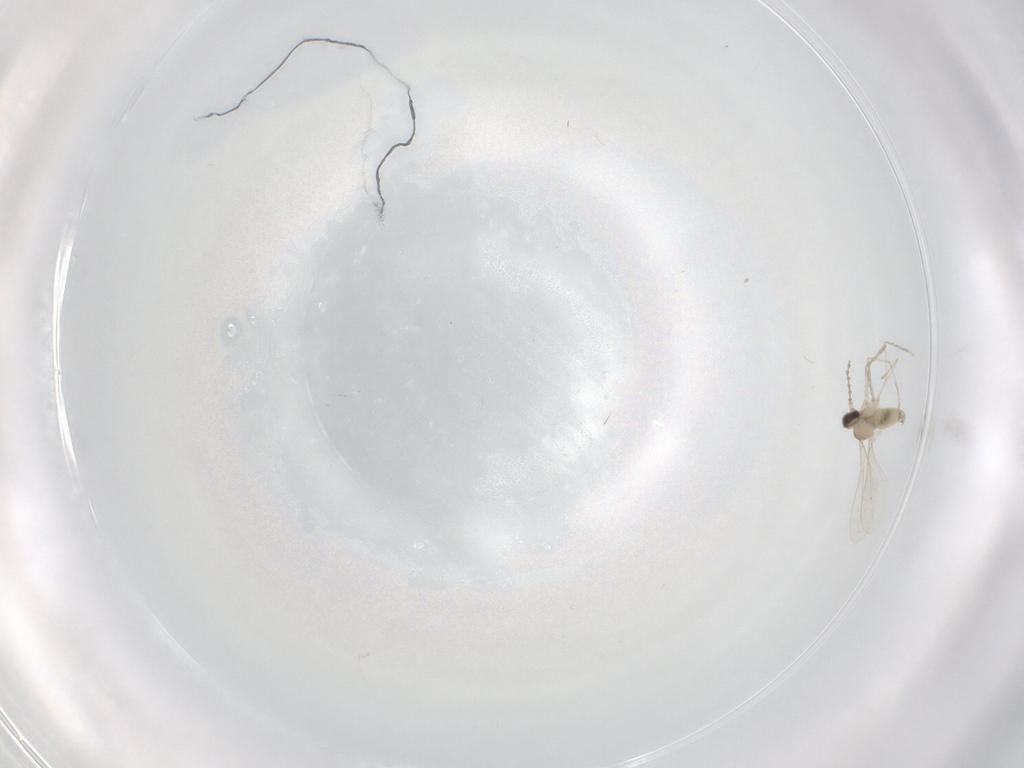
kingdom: Animalia
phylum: Arthropoda
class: Insecta
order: Diptera
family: Cecidomyiidae
